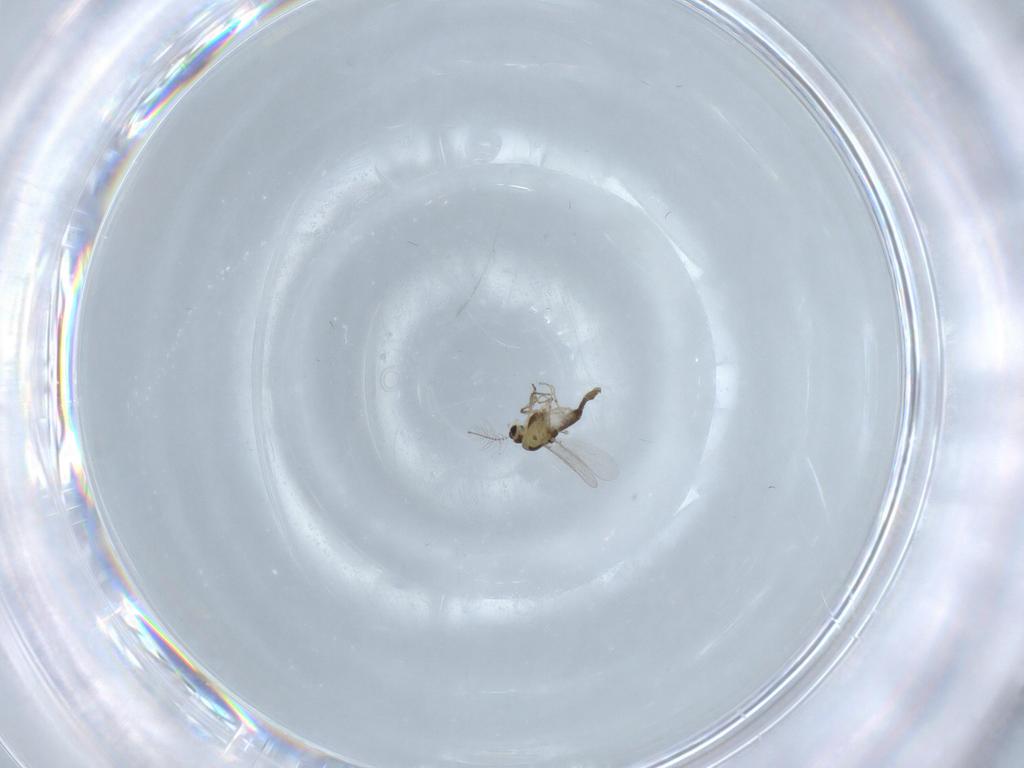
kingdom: Animalia
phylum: Arthropoda
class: Insecta
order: Diptera
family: Chironomidae
